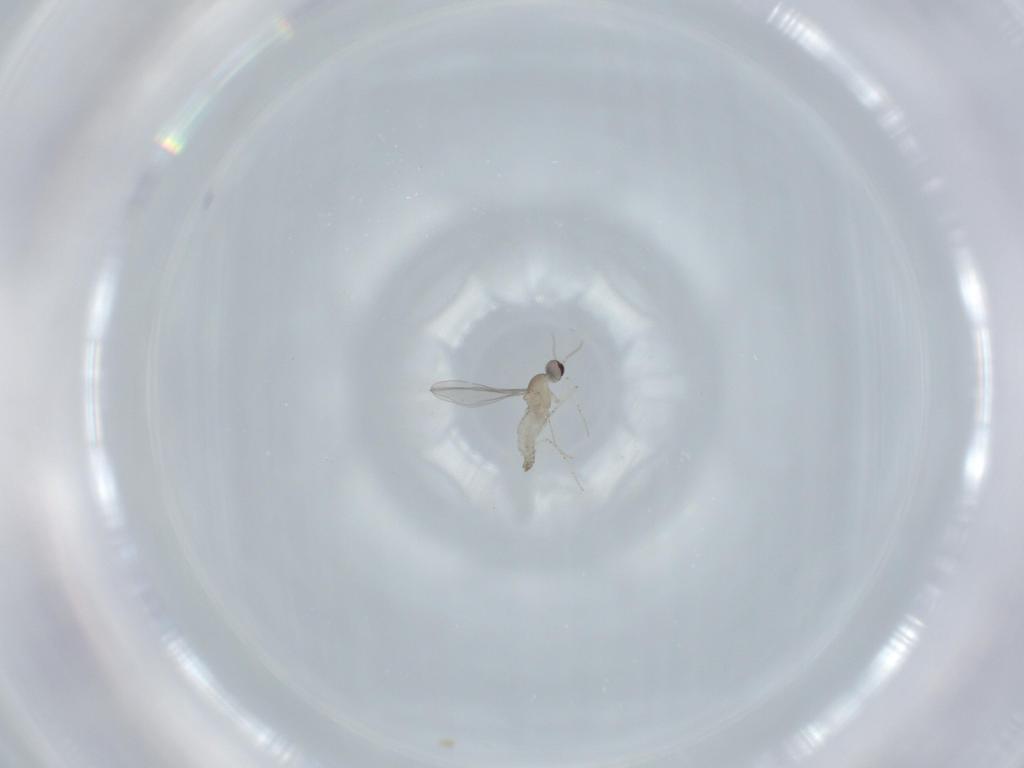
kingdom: Animalia
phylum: Arthropoda
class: Insecta
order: Diptera
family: Cecidomyiidae
